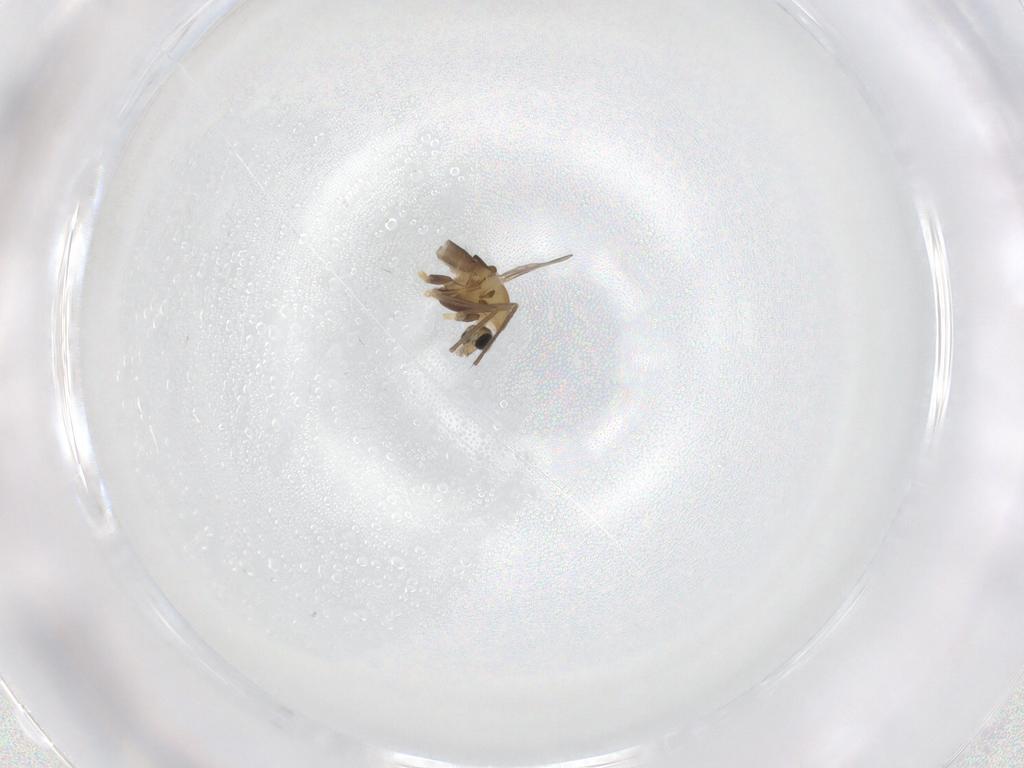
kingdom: Animalia
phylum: Arthropoda
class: Insecta
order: Diptera
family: Chironomidae
